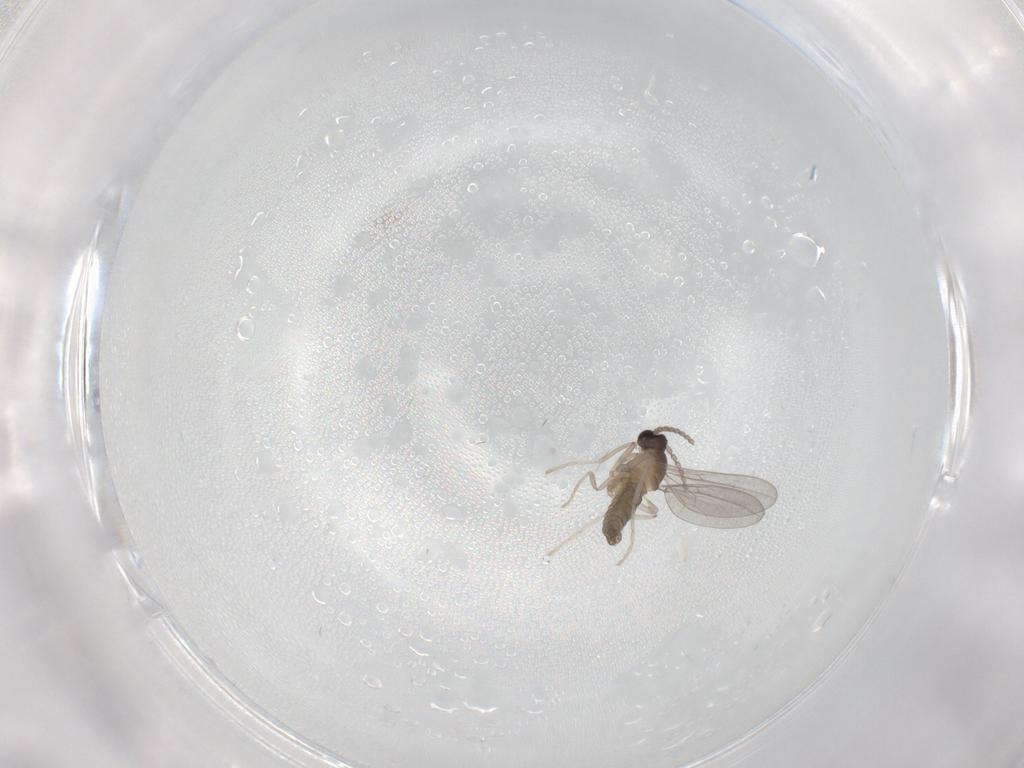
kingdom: Animalia
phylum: Arthropoda
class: Insecta
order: Diptera
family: Cecidomyiidae
